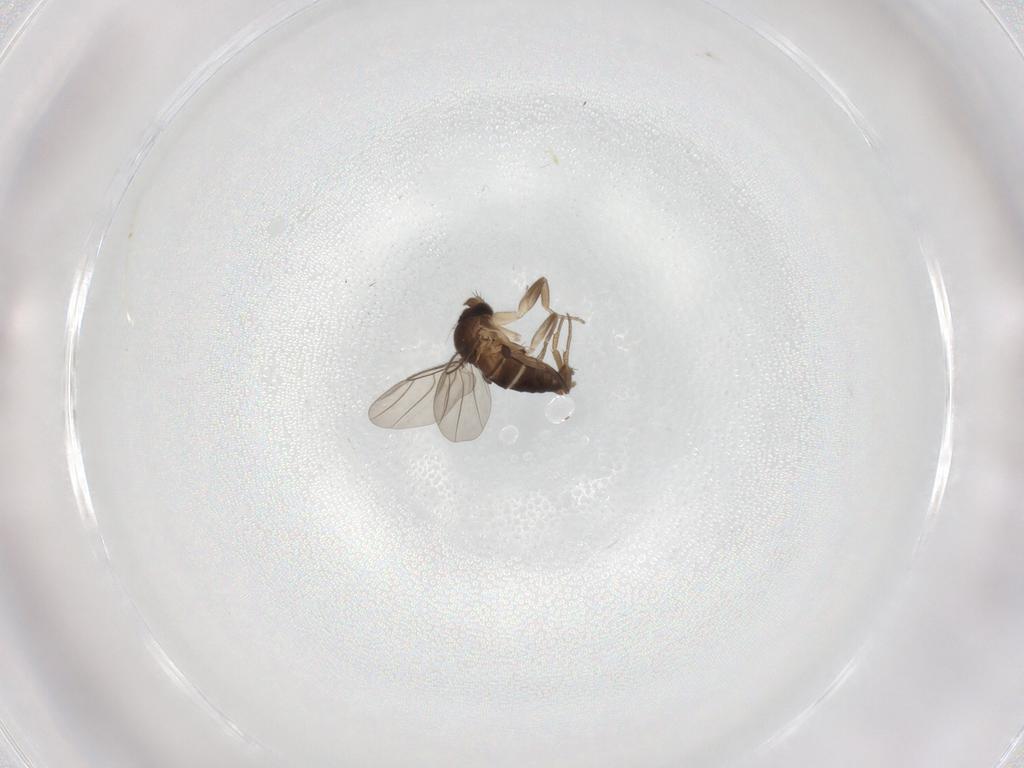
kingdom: Animalia
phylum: Arthropoda
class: Insecta
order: Diptera
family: Phoridae
